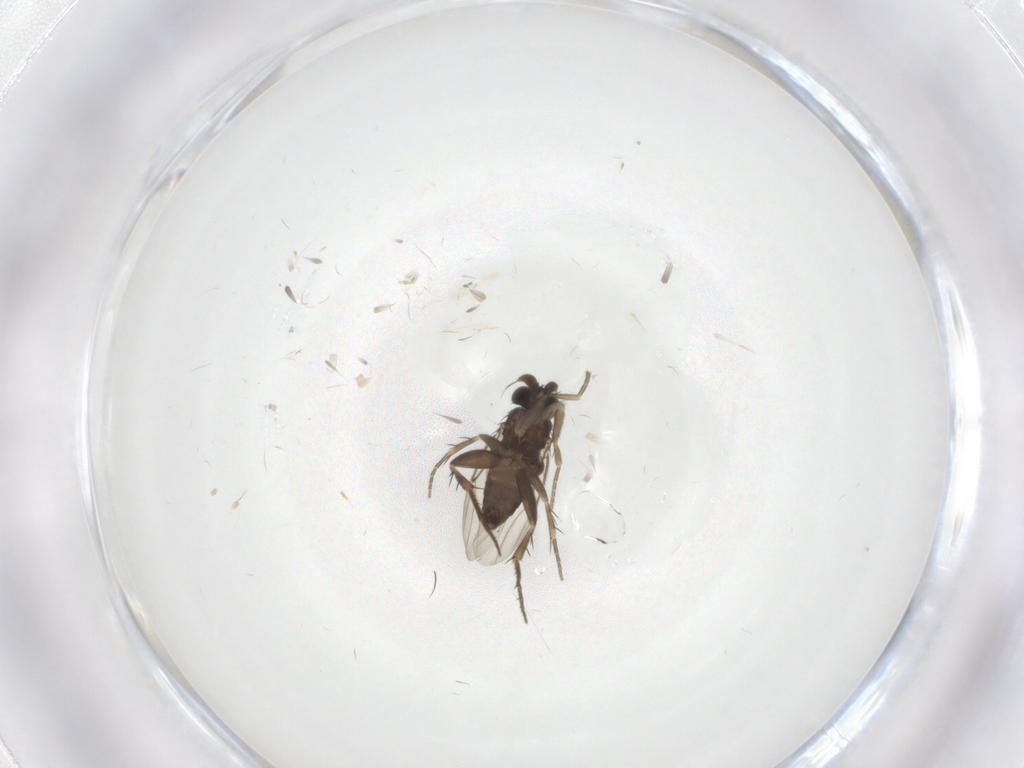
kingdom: Animalia
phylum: Arthropoda
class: Insecta
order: Diptera
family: Phoridae
